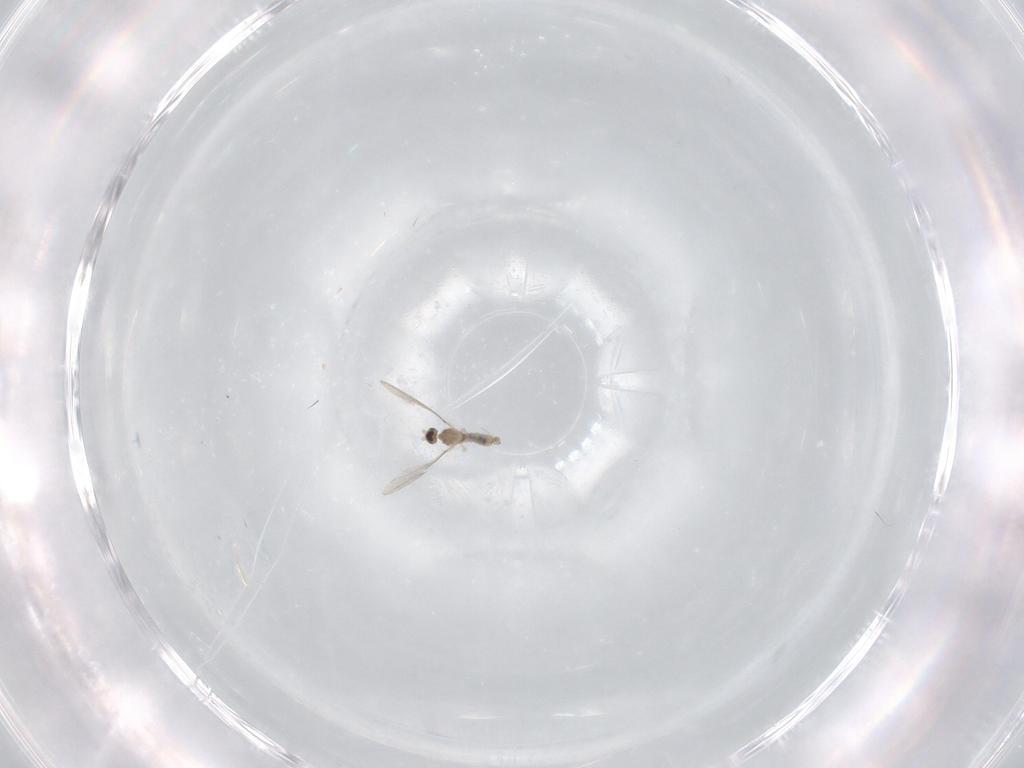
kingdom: Animalia
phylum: Arthropoda
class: Insecta
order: Diptera
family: Cecidomyiidae
